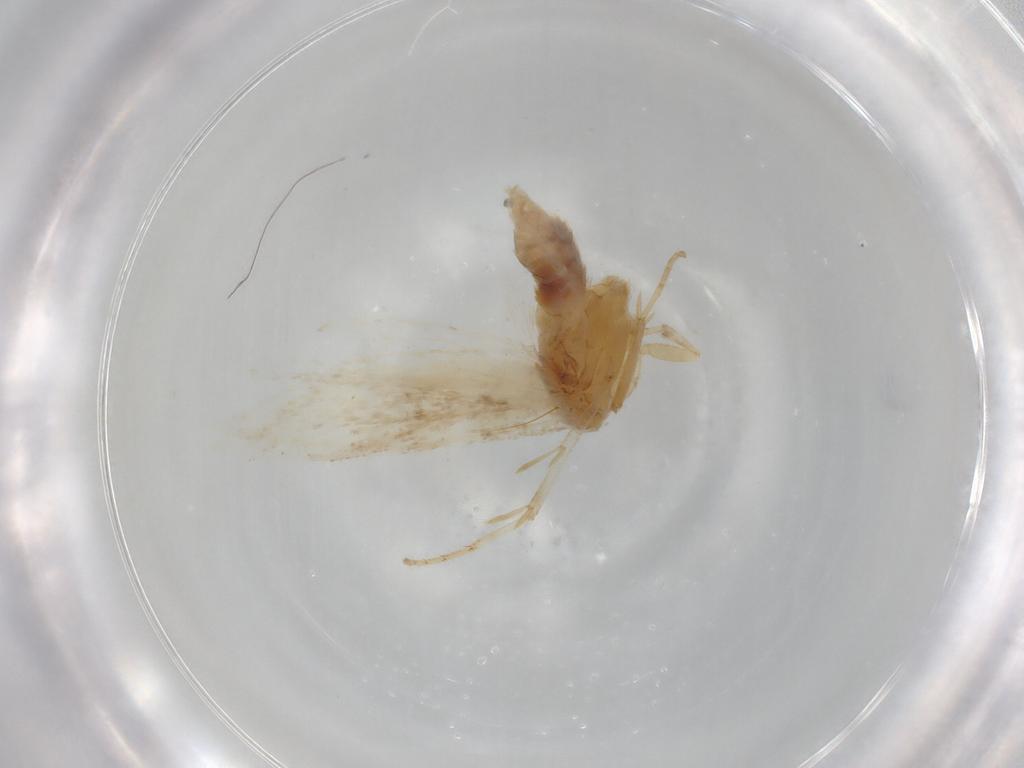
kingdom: Animalia
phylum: Arthropoda
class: Insecta
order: Lepidoptera
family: Gelechiidae
